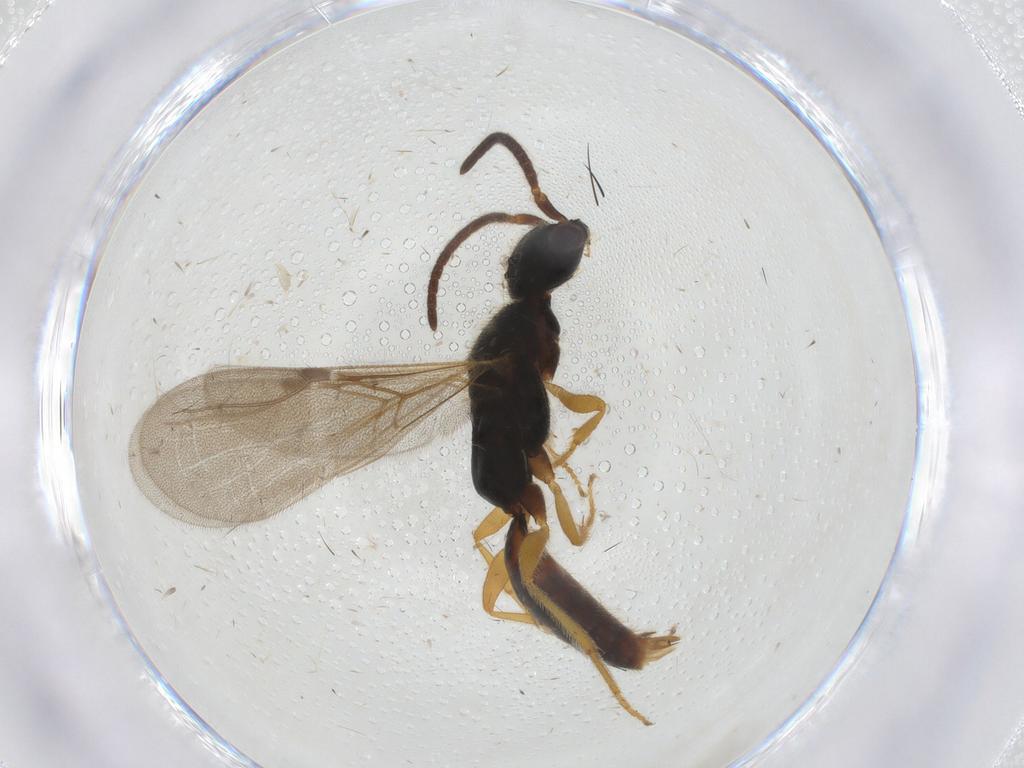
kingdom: Animalia
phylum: Arthropoda
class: Insecta
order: Hymenoptera
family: Bethylidae
